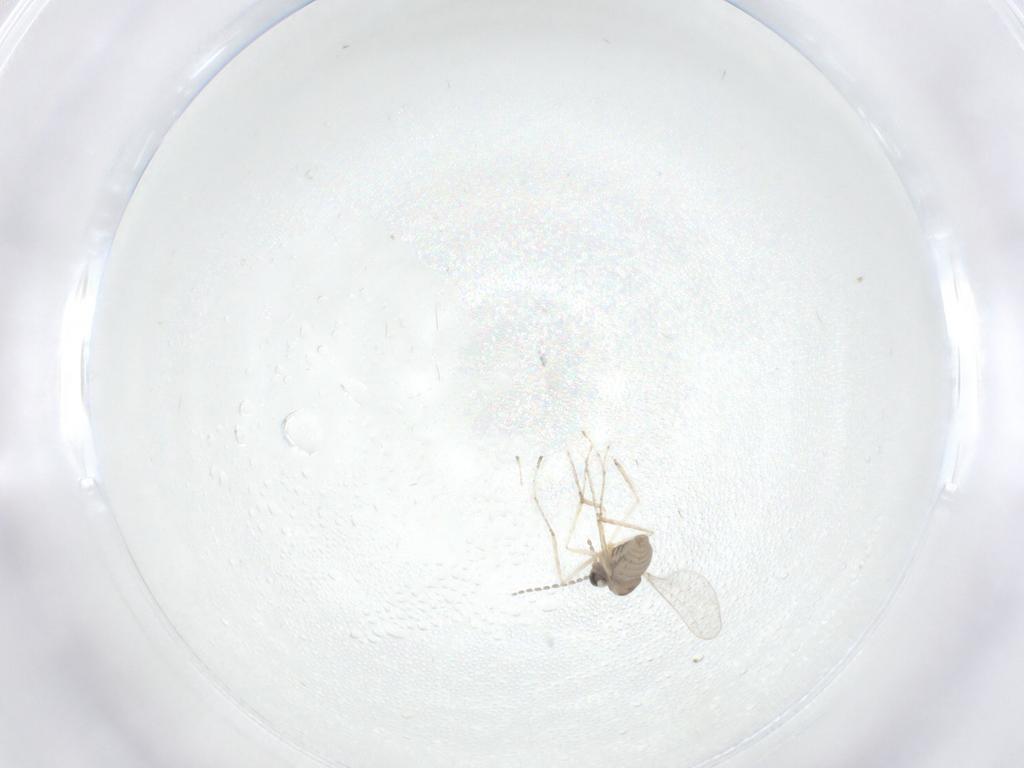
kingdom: Animalia
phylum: Arthropoda
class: Insecta
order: Diptera
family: Cecidomyiidae
